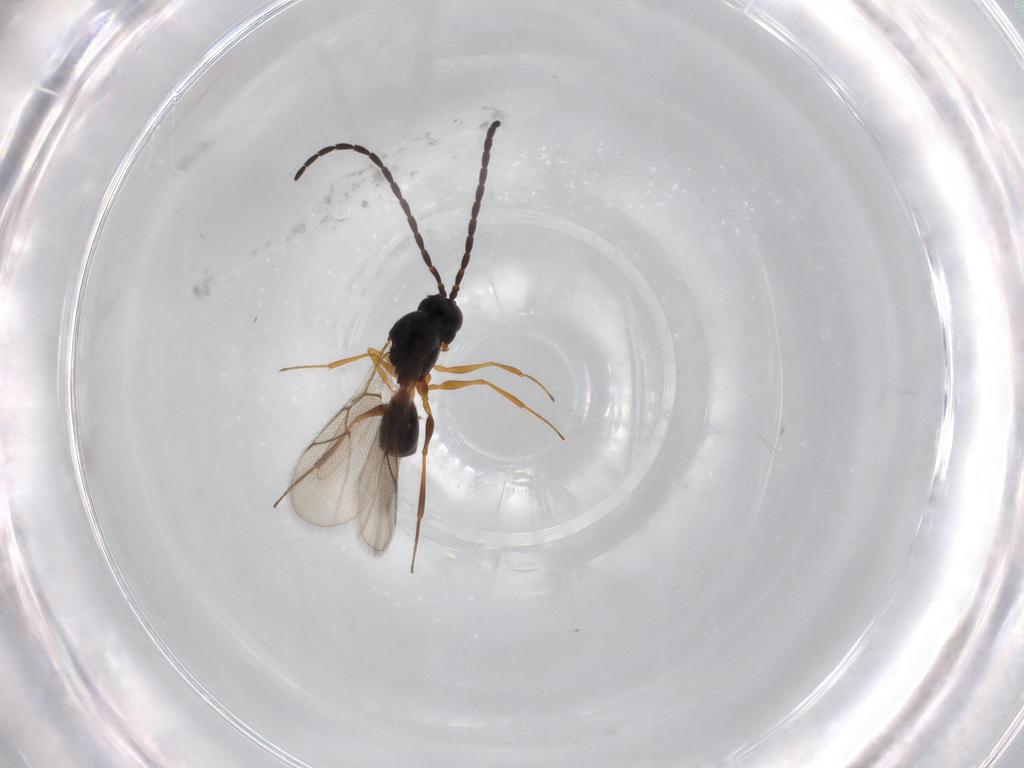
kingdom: Animalia
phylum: Arthropoda
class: Insecta
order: Hymenoptera
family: Figitidae
